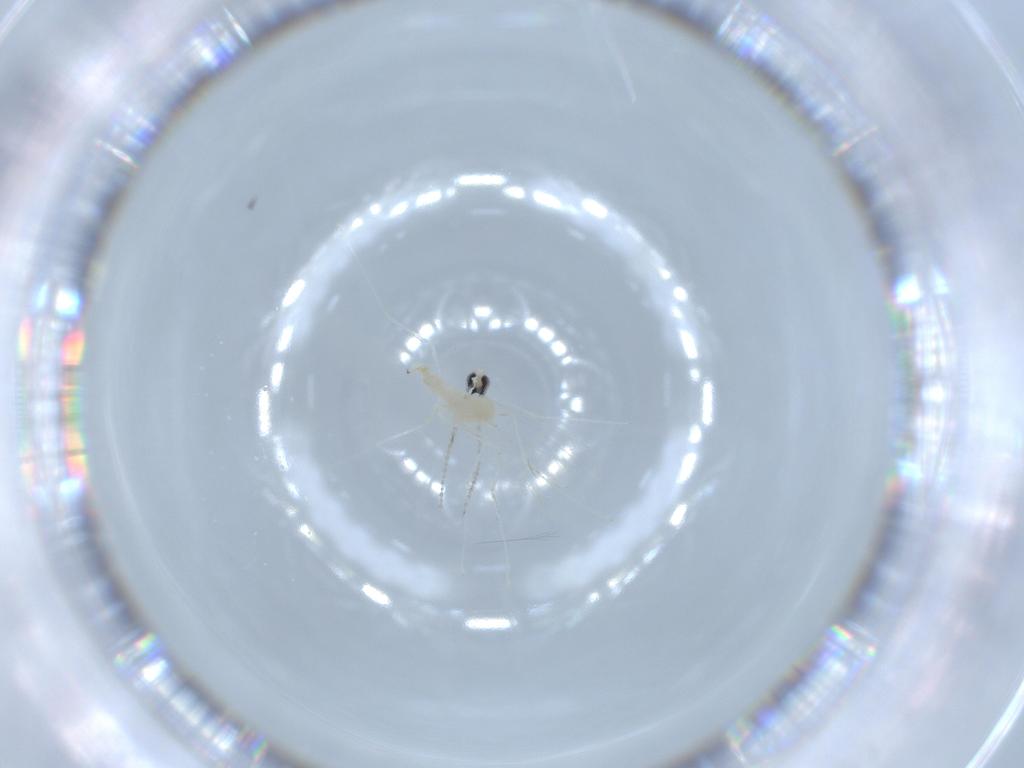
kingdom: Animalia
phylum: Arthropoda
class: Insecta
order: Diptera
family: Cecidomyiidae
